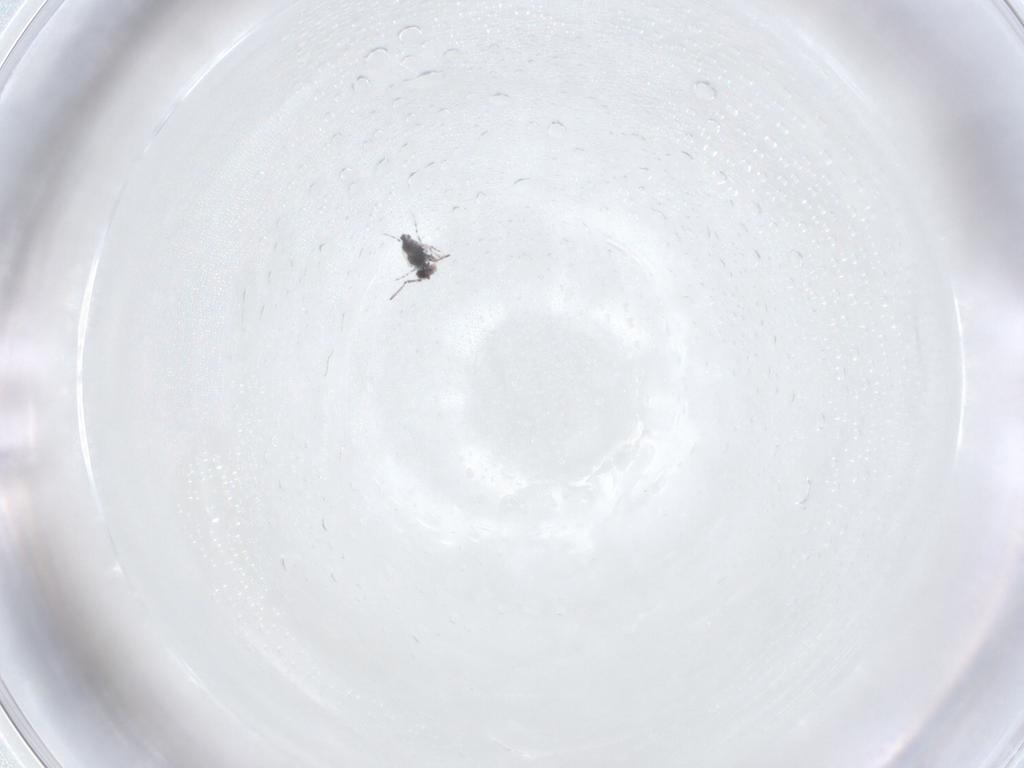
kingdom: Animalia
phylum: Arthropoda
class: Collembola
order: Symphypleona
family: Bourletiellidae
